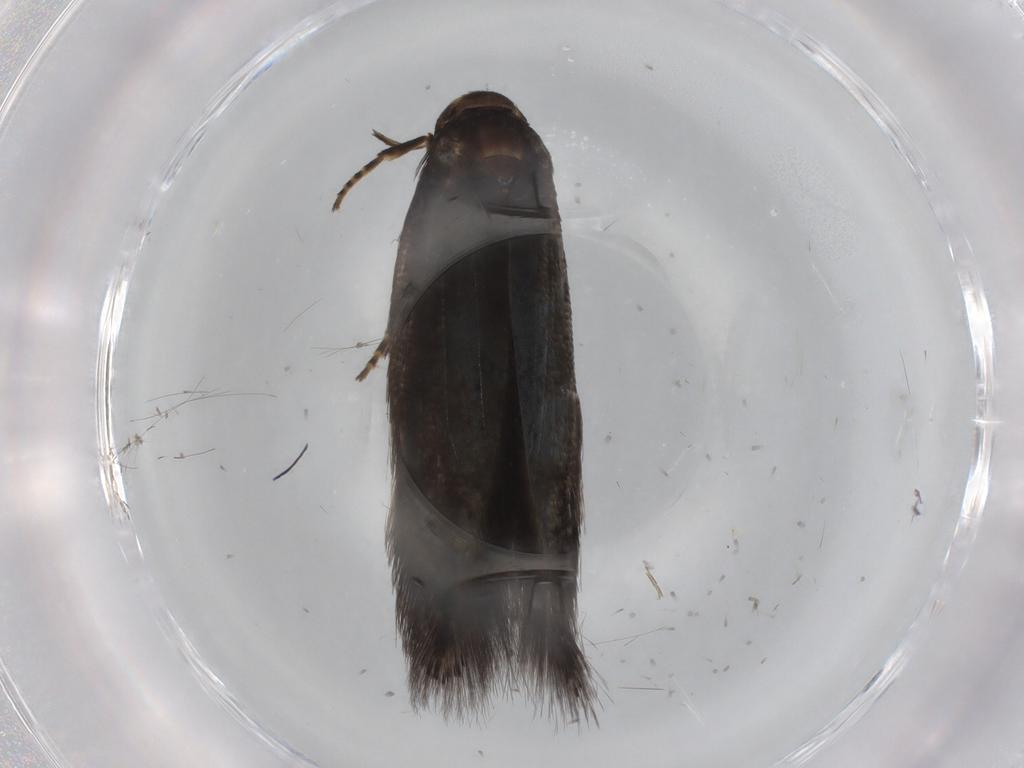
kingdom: Animalia
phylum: Arthropoda
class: Insecta
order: Lepidoptera
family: Elachistidae
